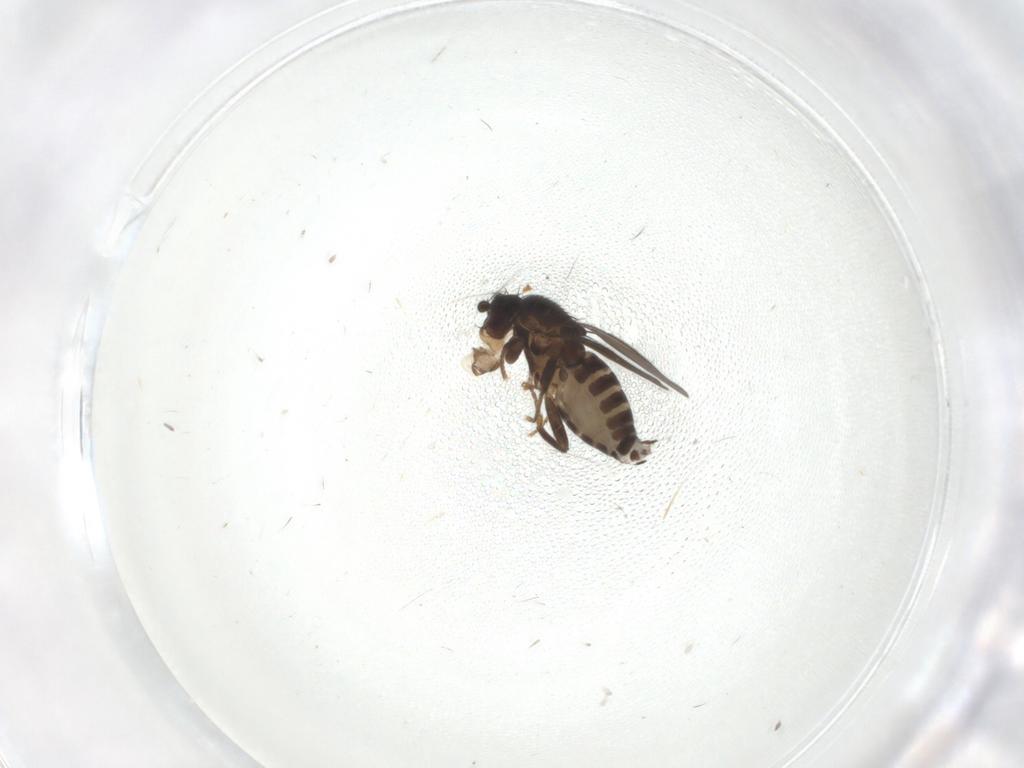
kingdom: Animalia
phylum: Arthropoda
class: Insecta
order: Diptera
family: Sphaeroceridae
